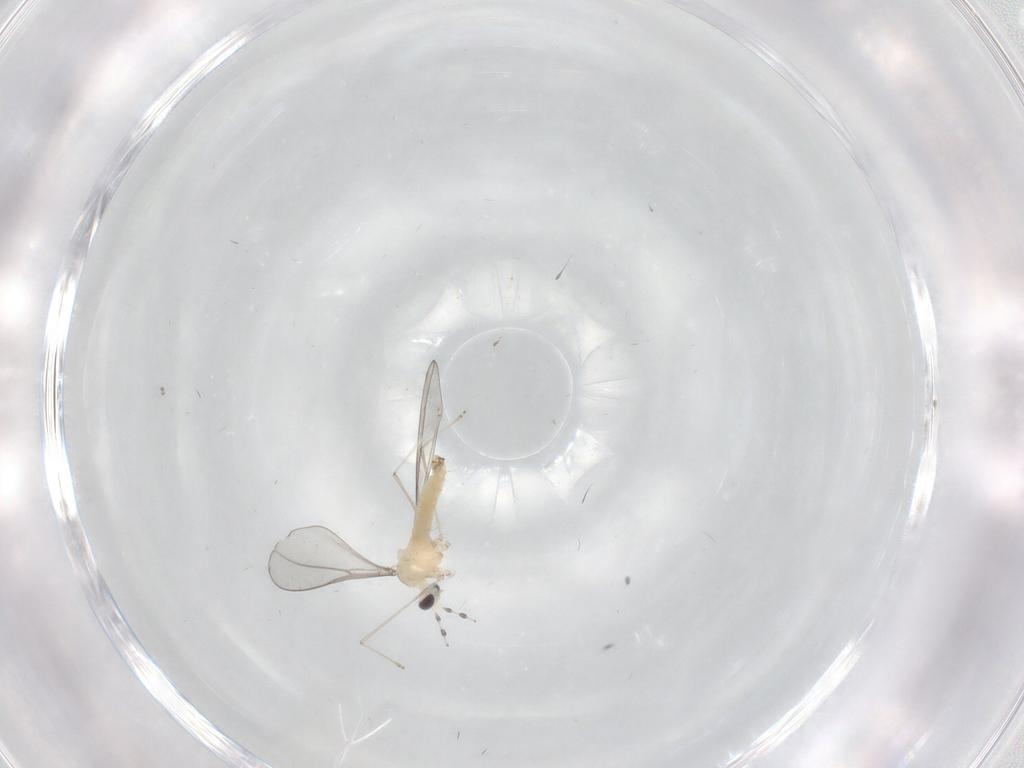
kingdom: Animalia
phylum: Arthropoda
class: Insecta
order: Diptera
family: Cecidomyiidae
